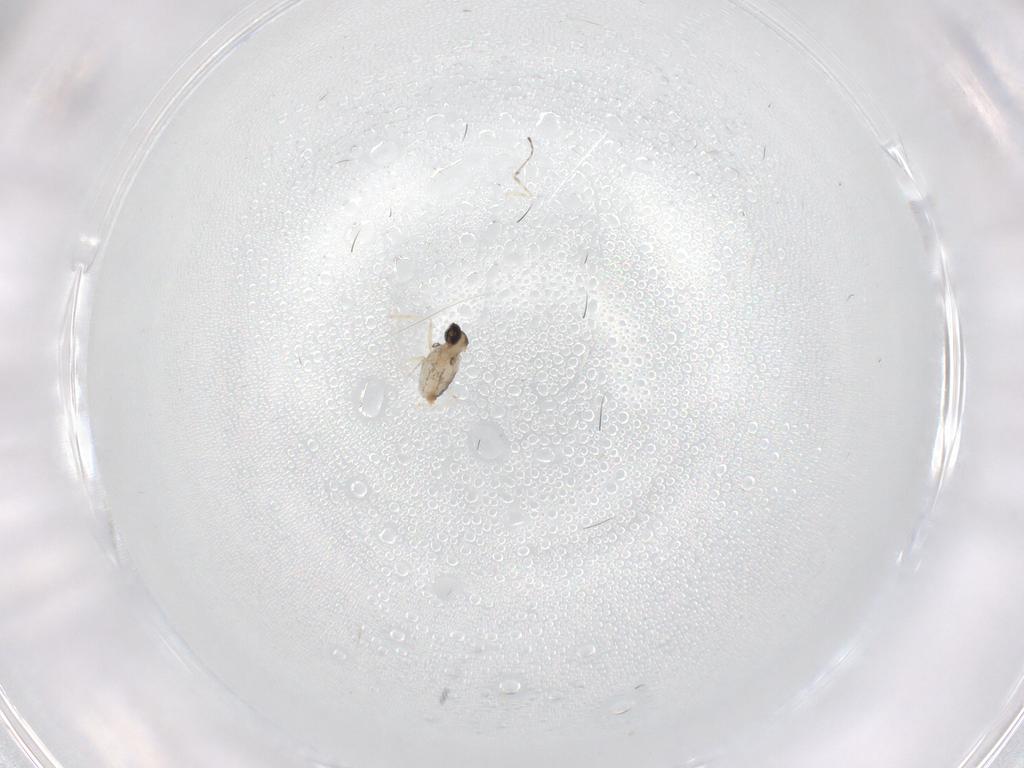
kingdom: Animalia
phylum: Arthropoda
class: Insecta
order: Diptera
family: Cecidomyiidae
